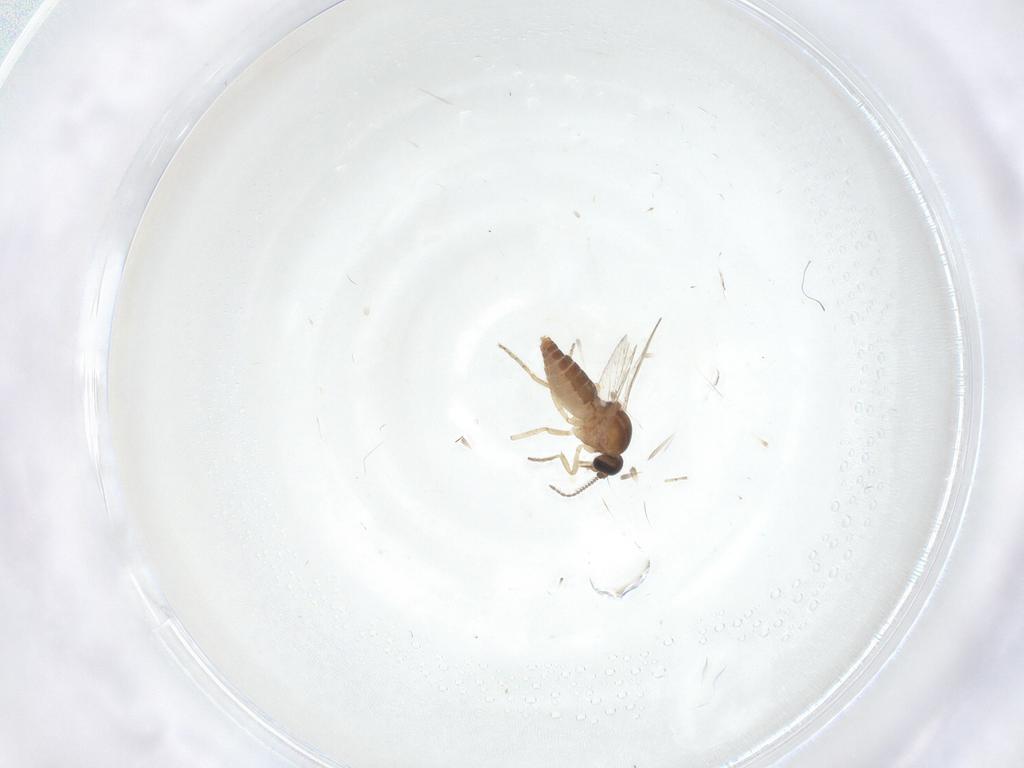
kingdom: Animalia
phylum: Arthropoda
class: Insecta
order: Diptera
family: Ceratopogonidae
